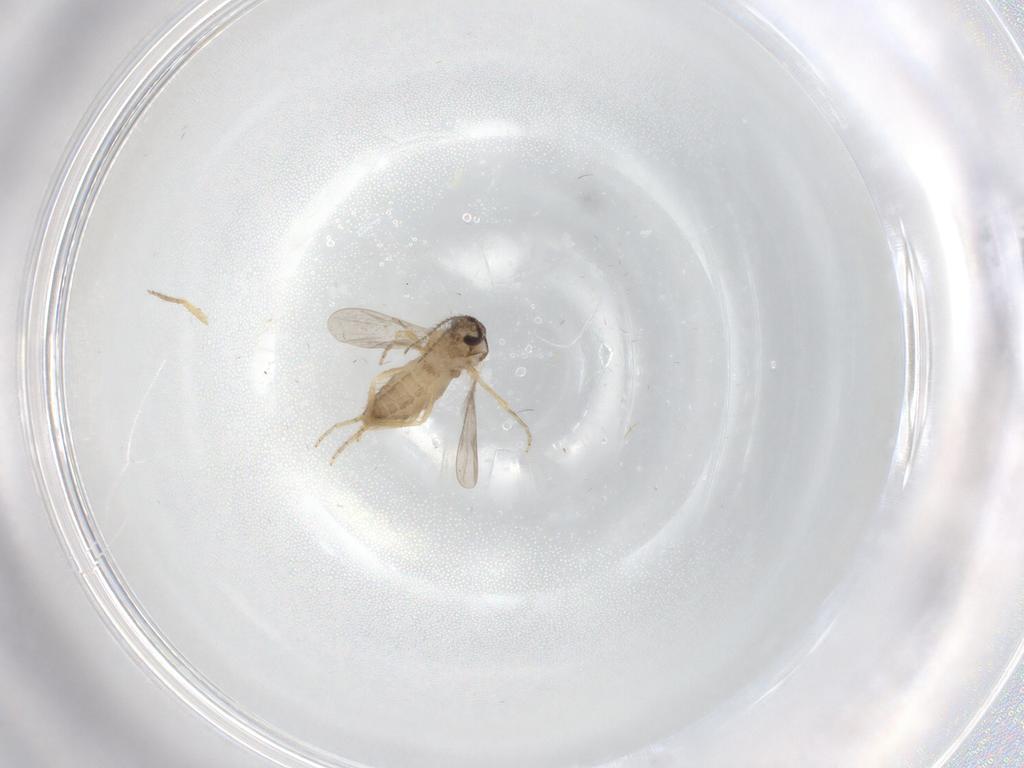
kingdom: Animalia
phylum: Arthropoda
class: Insecta
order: Diptera
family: Ceratopogonidae
